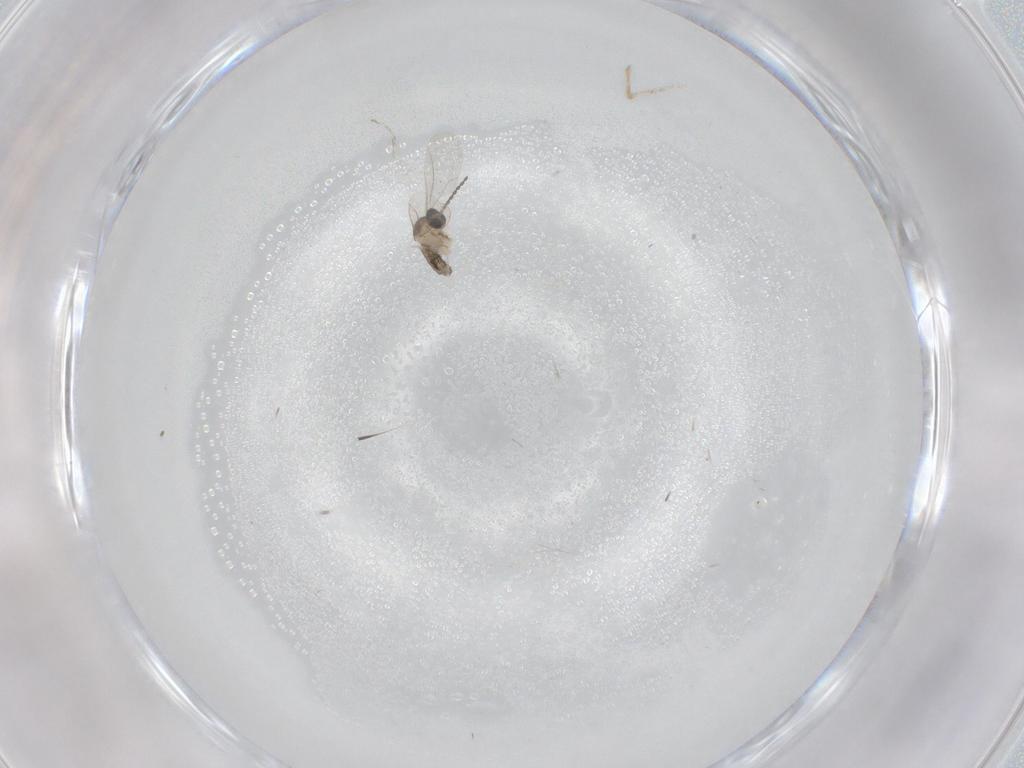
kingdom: Animalia
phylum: Arthropoda
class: Insecta
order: Diptera
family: Cecidomyiidae
